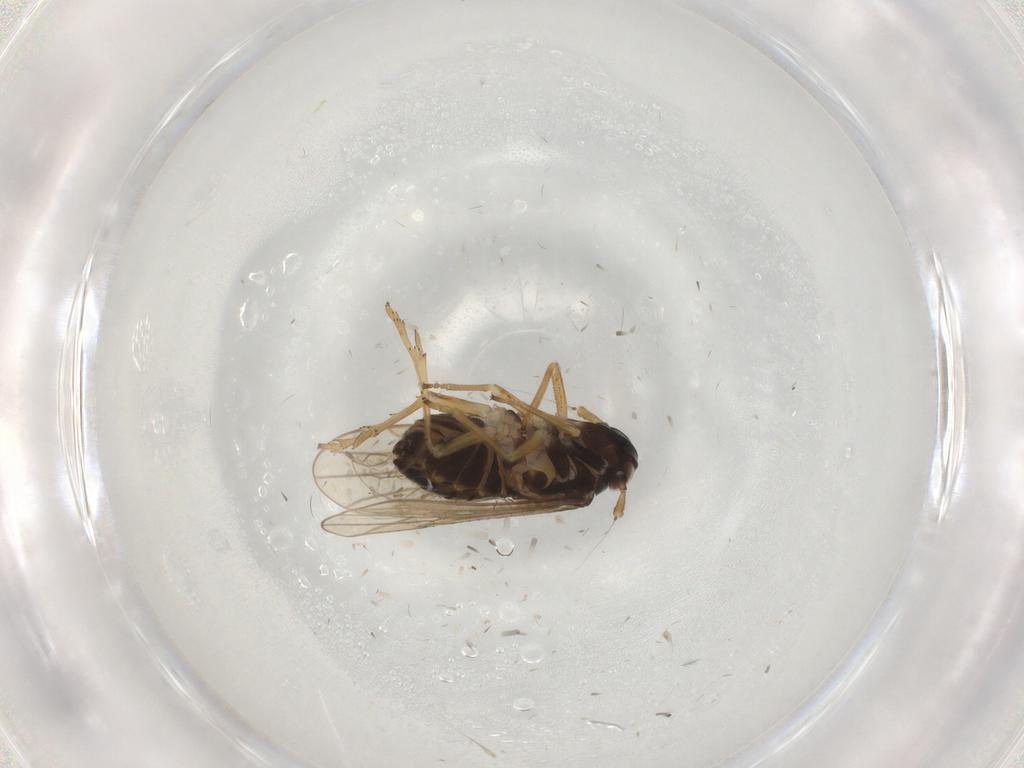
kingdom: Animalia
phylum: Arthropoda
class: Insecta
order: Hemiptera
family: Delphacidae
